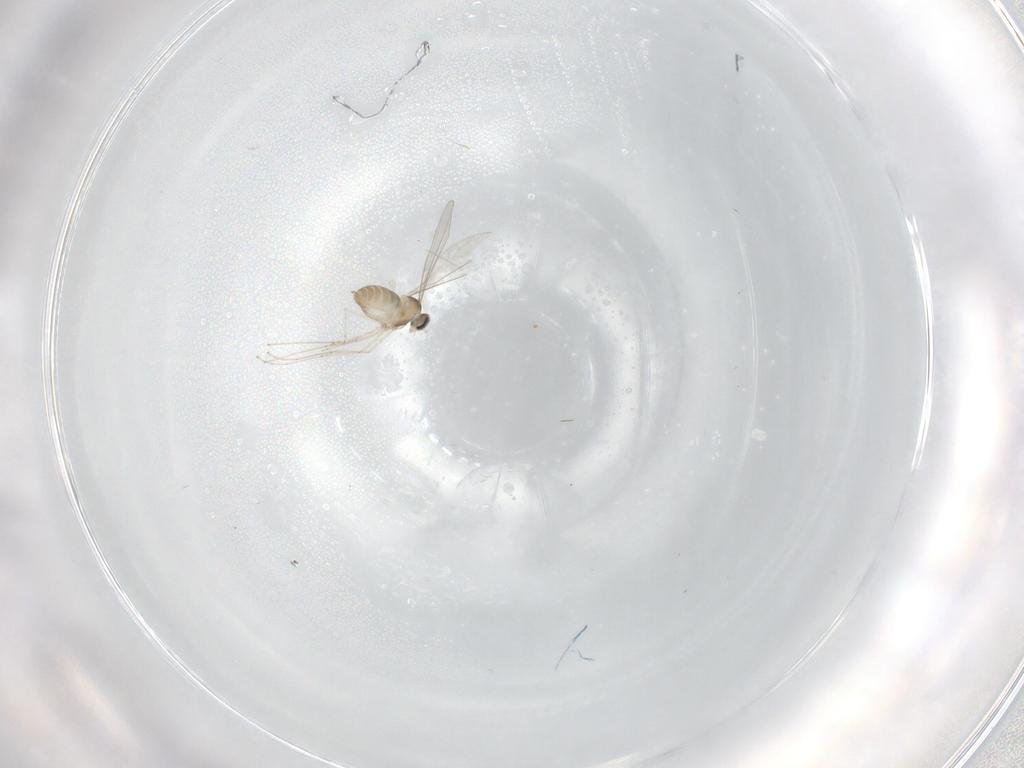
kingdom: Animalia
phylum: Arthropoda
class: Insecta
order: Diptera
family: Cecidomyiidae
